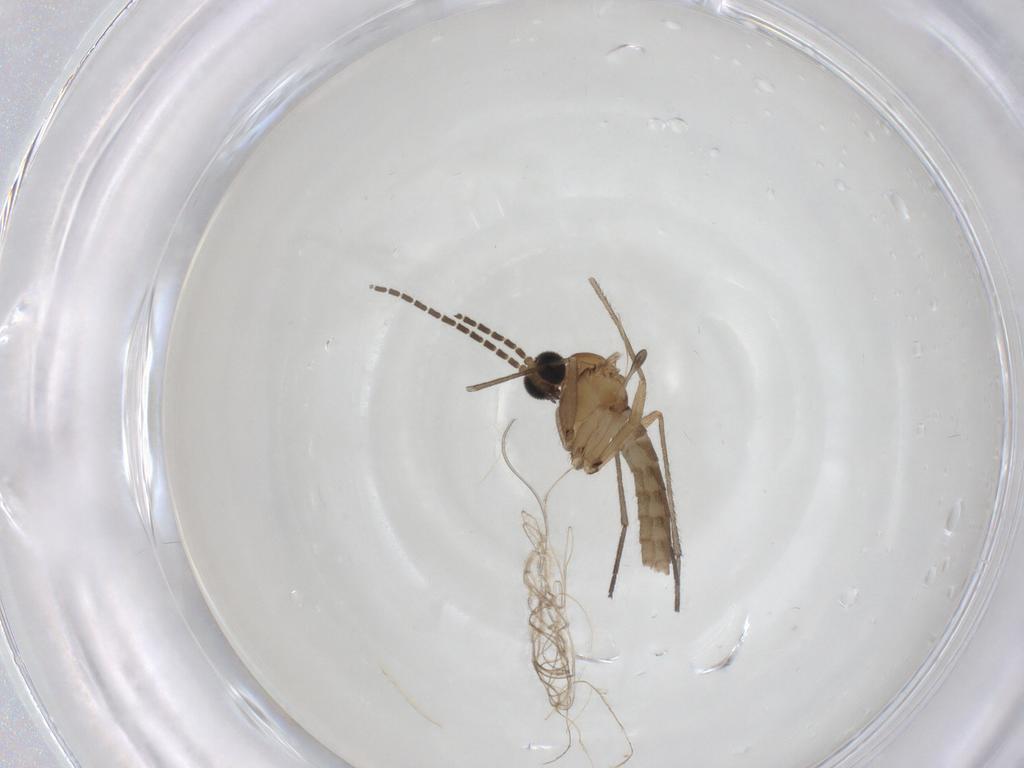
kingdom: Animalia
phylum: Arthropoda
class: Insecta
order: Diptera
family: Sciaridae
